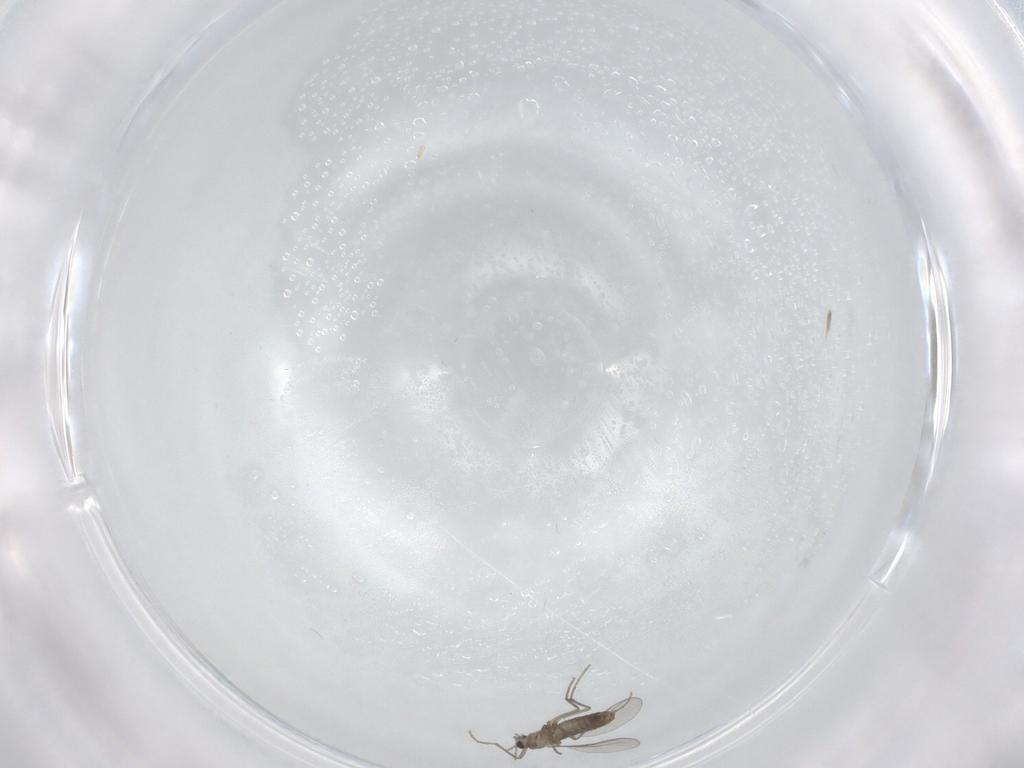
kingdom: Animalia
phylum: Arthropoda
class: Insecta
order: Diptera
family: Chironomidae
